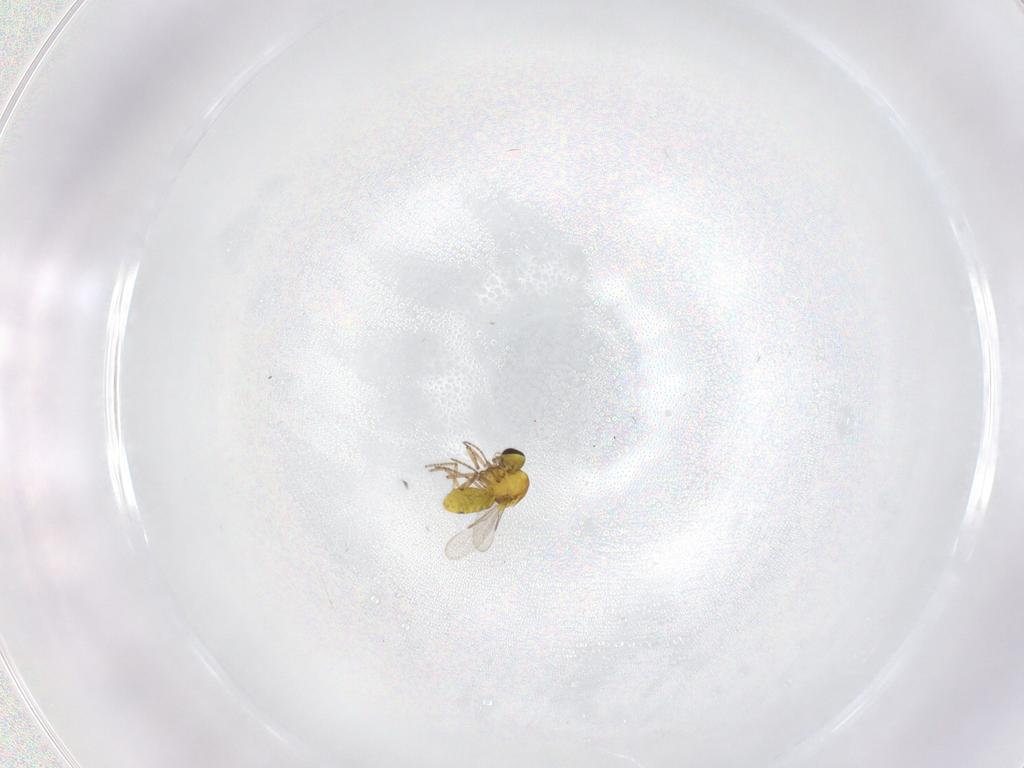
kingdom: Animalia
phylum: Arthropoda
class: Insecta
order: Diptera
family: Ceratopogonidae
